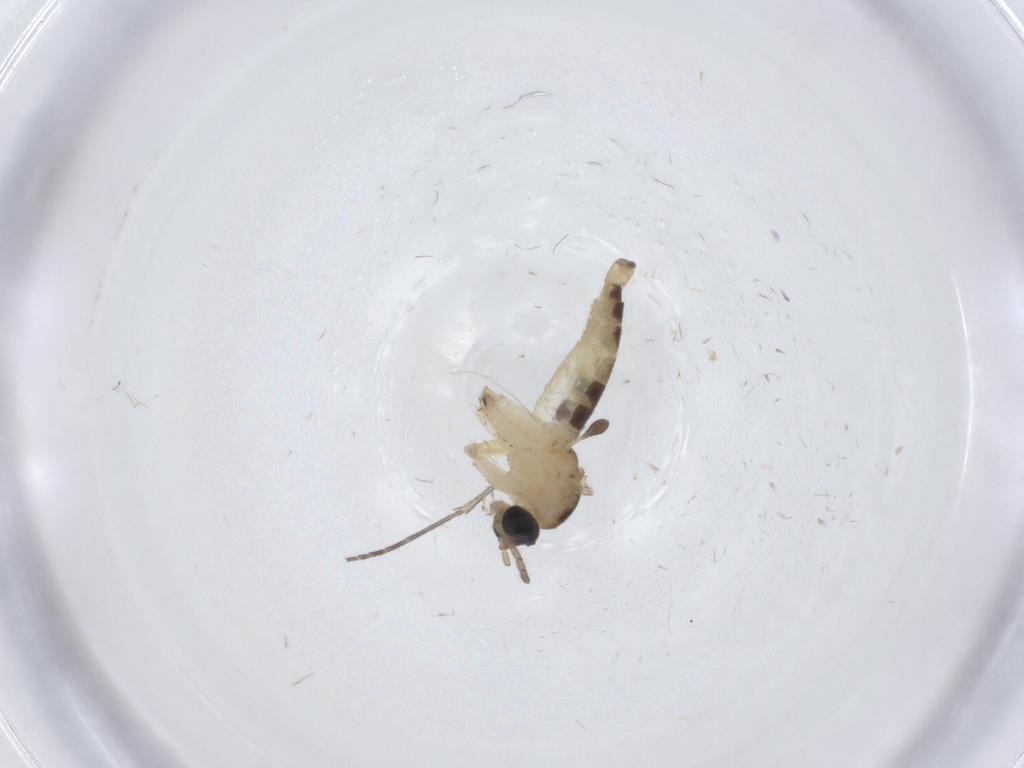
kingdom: Animalia
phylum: Arthropoda
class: Insecta
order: Diptera
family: Sciaridae
